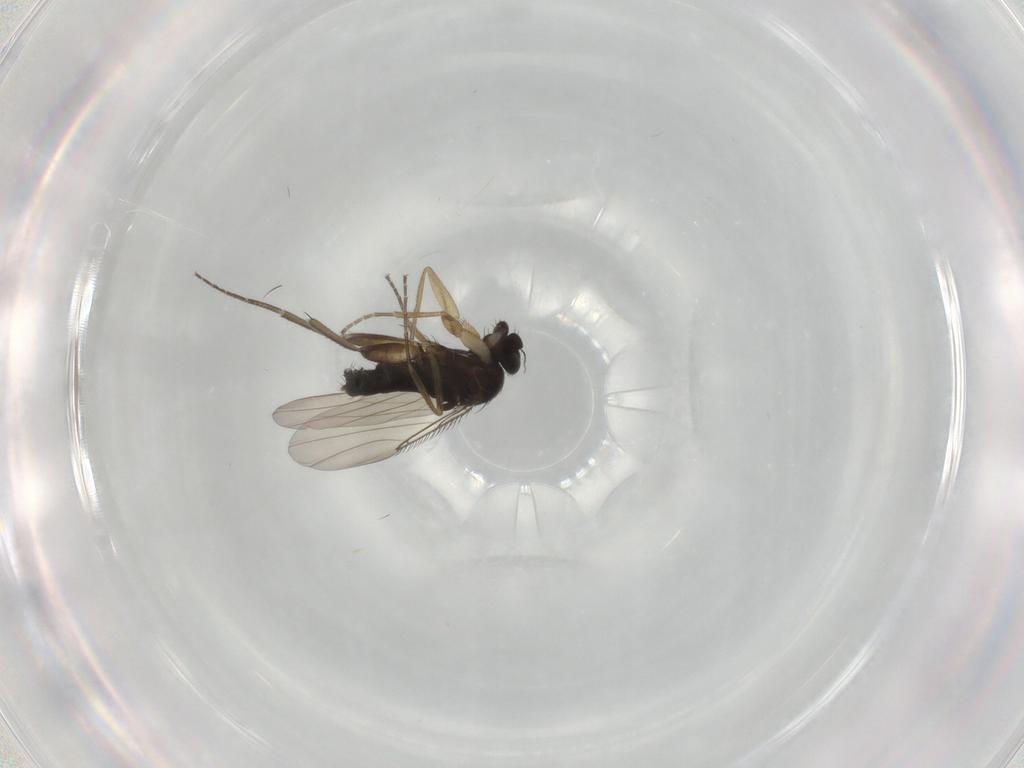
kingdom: Animalia
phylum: Arthropoda
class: Insecta
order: Diptera
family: Phoridae
